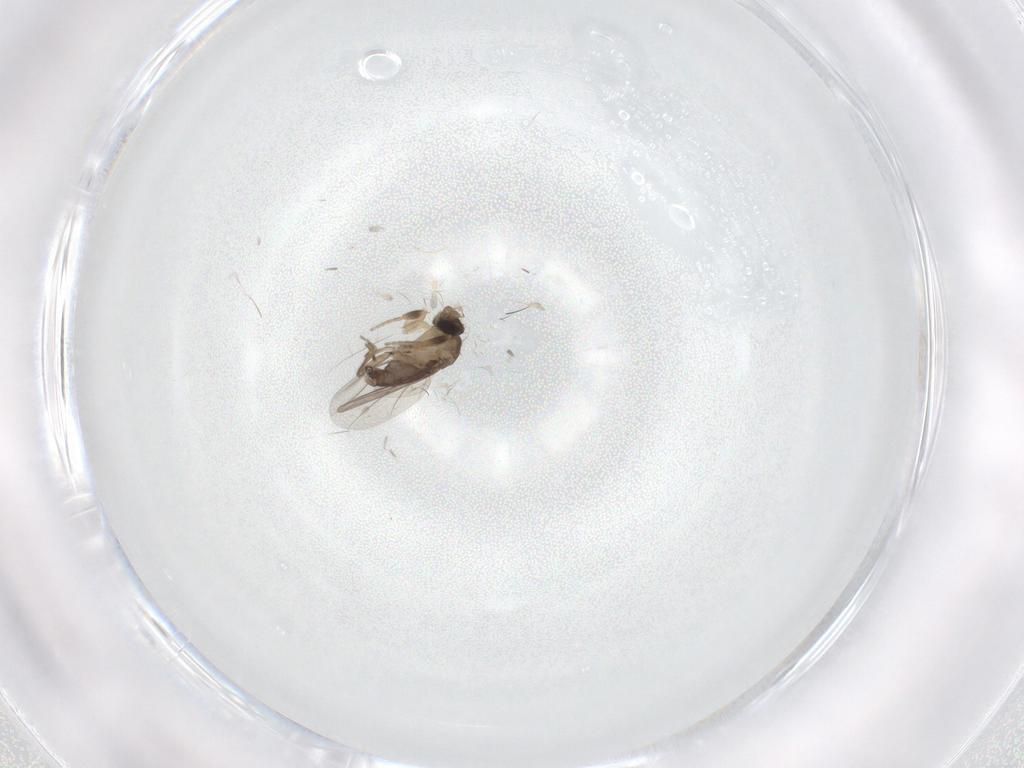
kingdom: Animalia
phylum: Arthropoda
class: Insecta
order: Diptera
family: Phoridae
